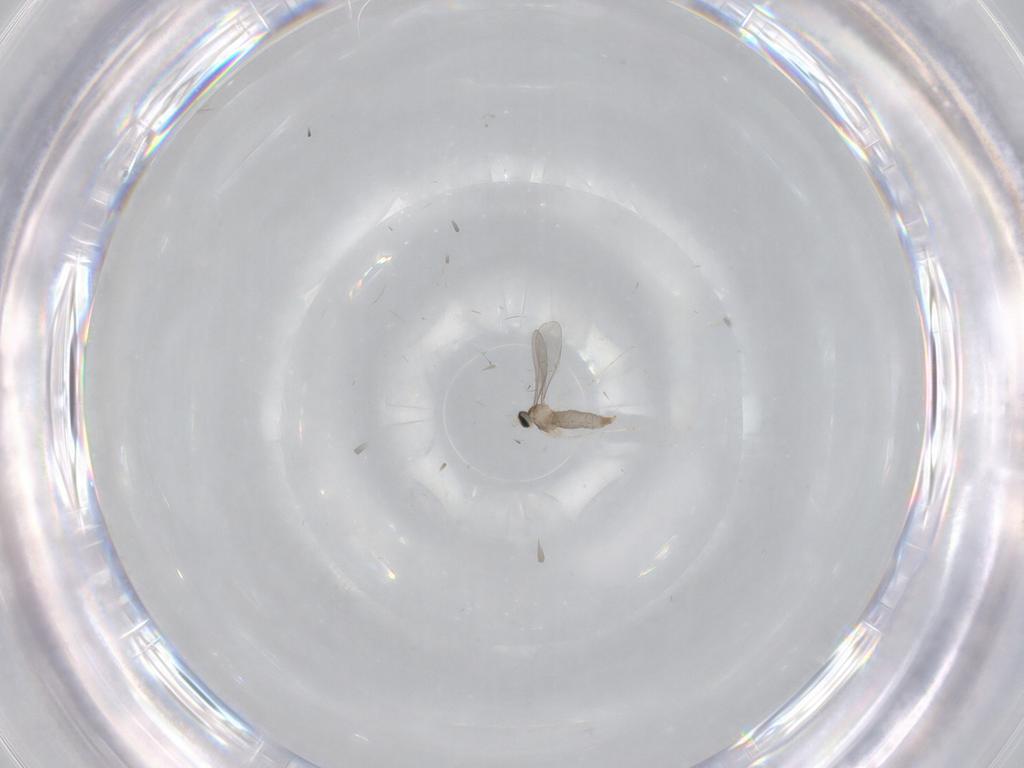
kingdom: Animalia
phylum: Arthropoda
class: Insecta
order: Diptera
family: Cecidomyiidae
